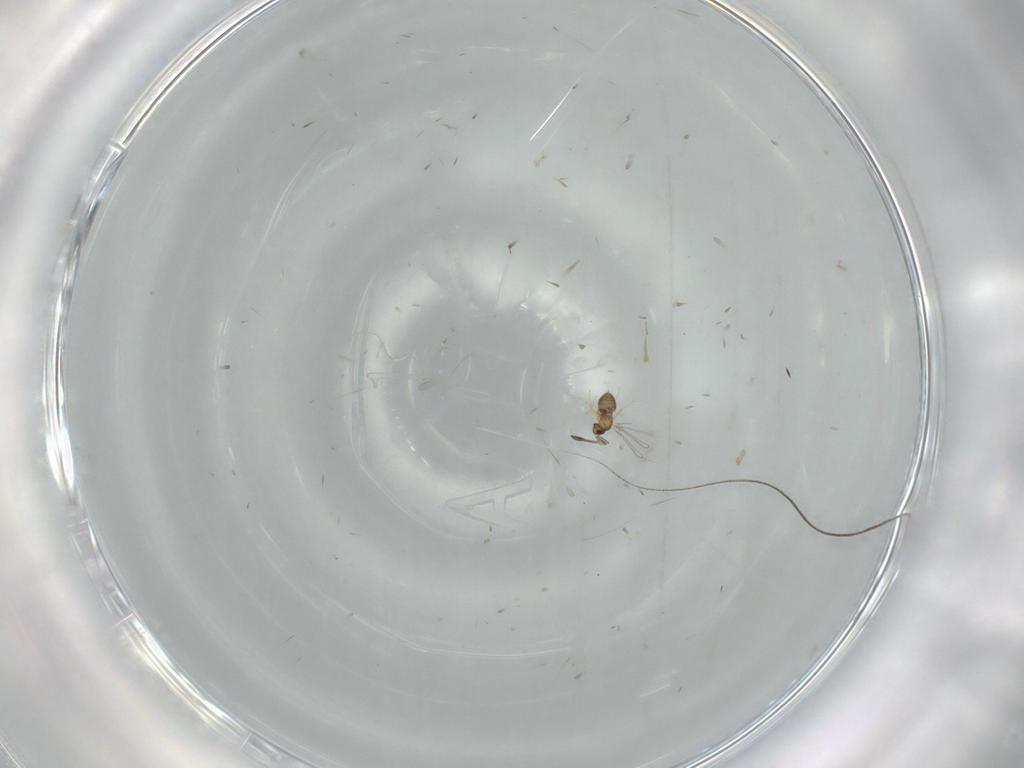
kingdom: Animalia
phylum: Arthropoda
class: Insecta
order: Hymenoptera
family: Mymaridae
